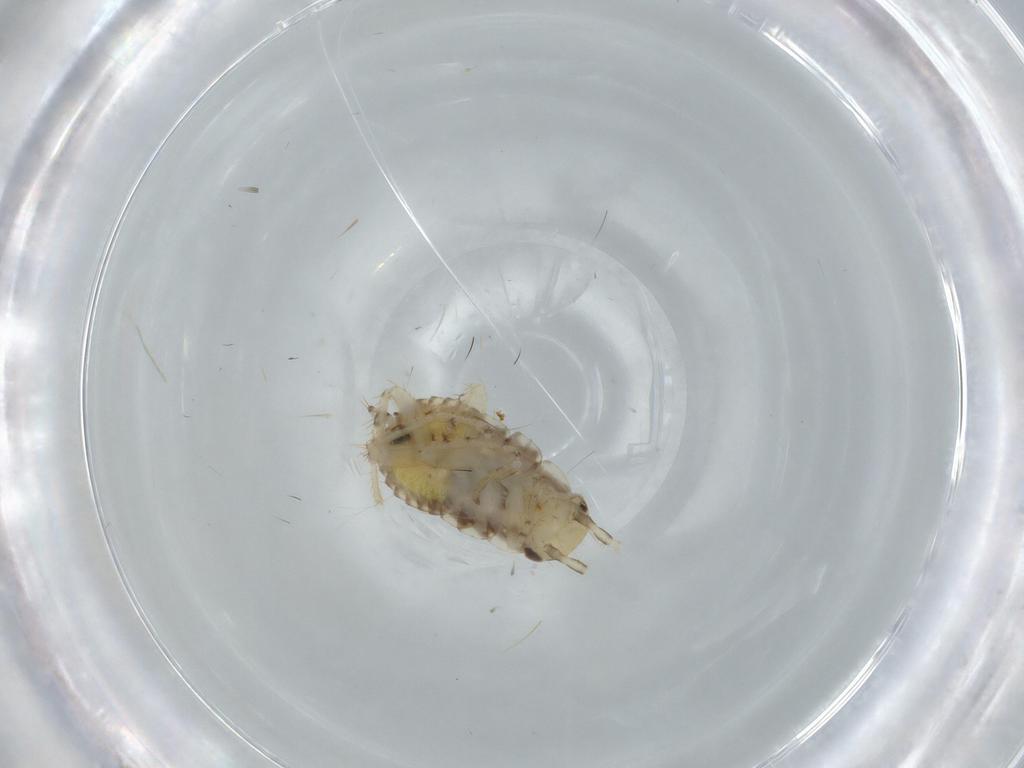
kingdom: Animalia
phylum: Arthropoda
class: Insecta
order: Blattodea
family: Ectobiidae
